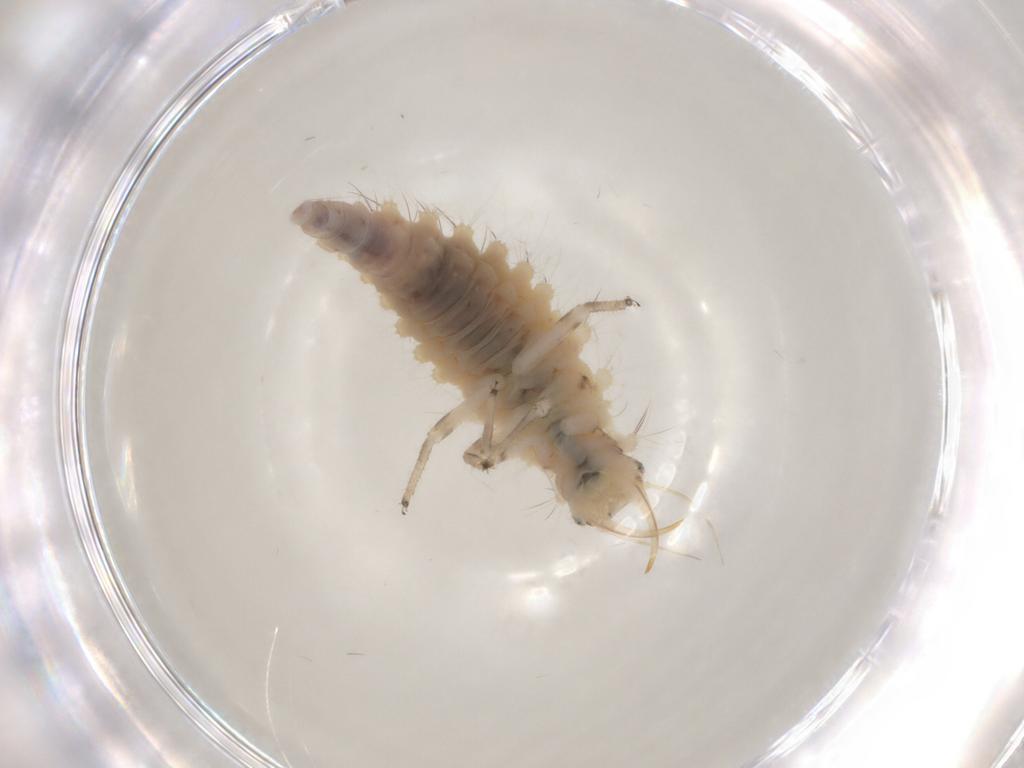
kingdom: Animalia
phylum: Arthropoda
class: Insecta
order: Neuroptera
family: Chrysopidae
